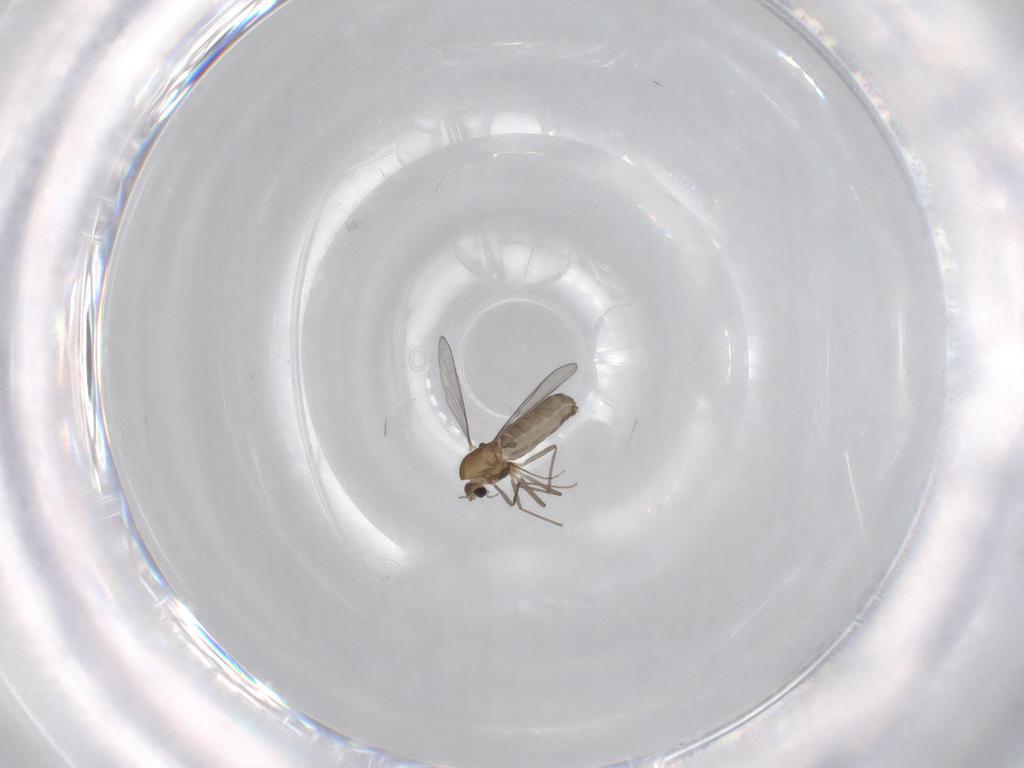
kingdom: Animalia
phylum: Arthropoda
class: Insecta
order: Diptera
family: Chironomidae
